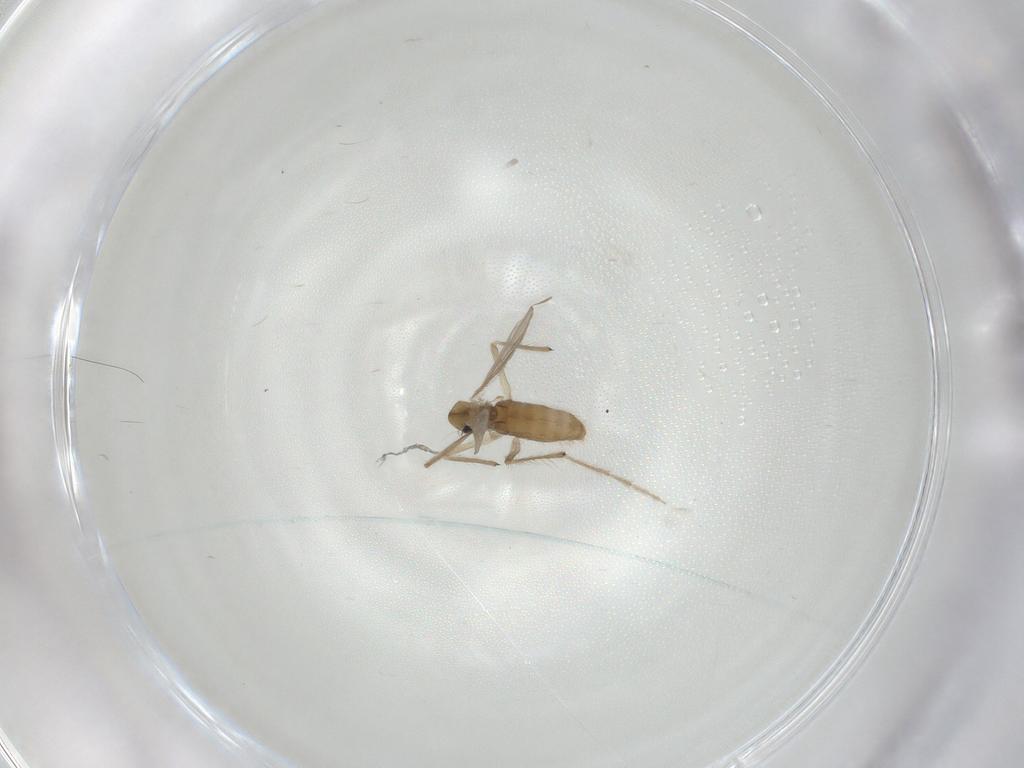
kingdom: Animalia
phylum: Arthropoda
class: Insecta
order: Diptera
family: Chironomidae
